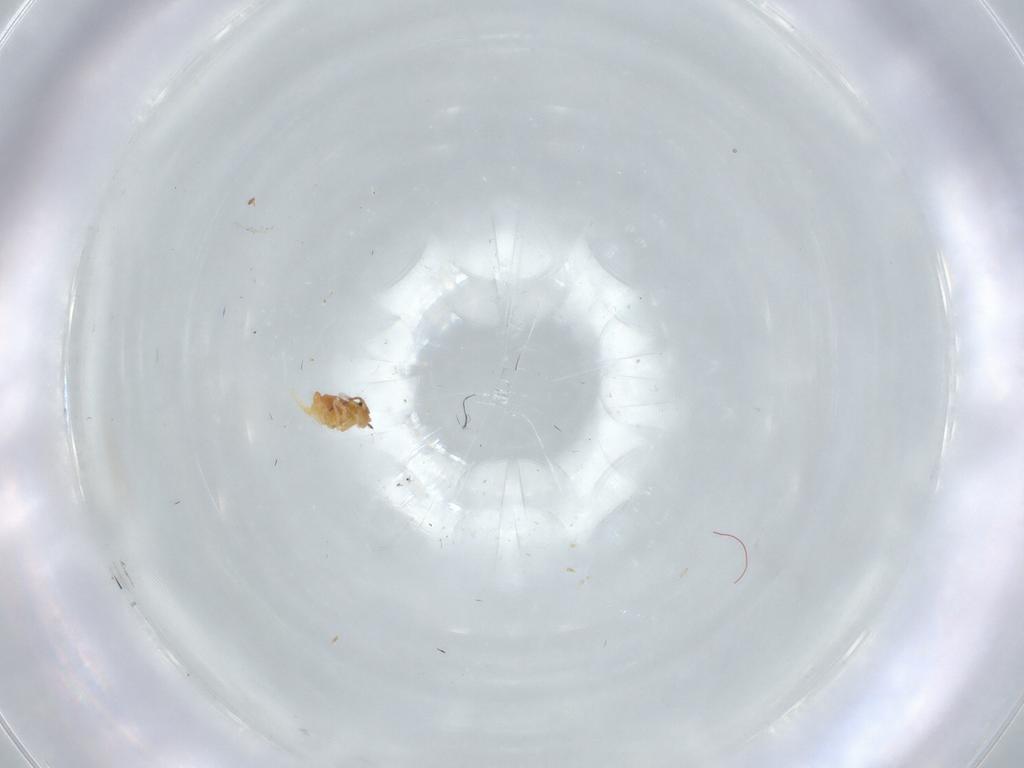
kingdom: Animalia
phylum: Arthropoda
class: Collembola
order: Symphypleona
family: Bourletiellidae
